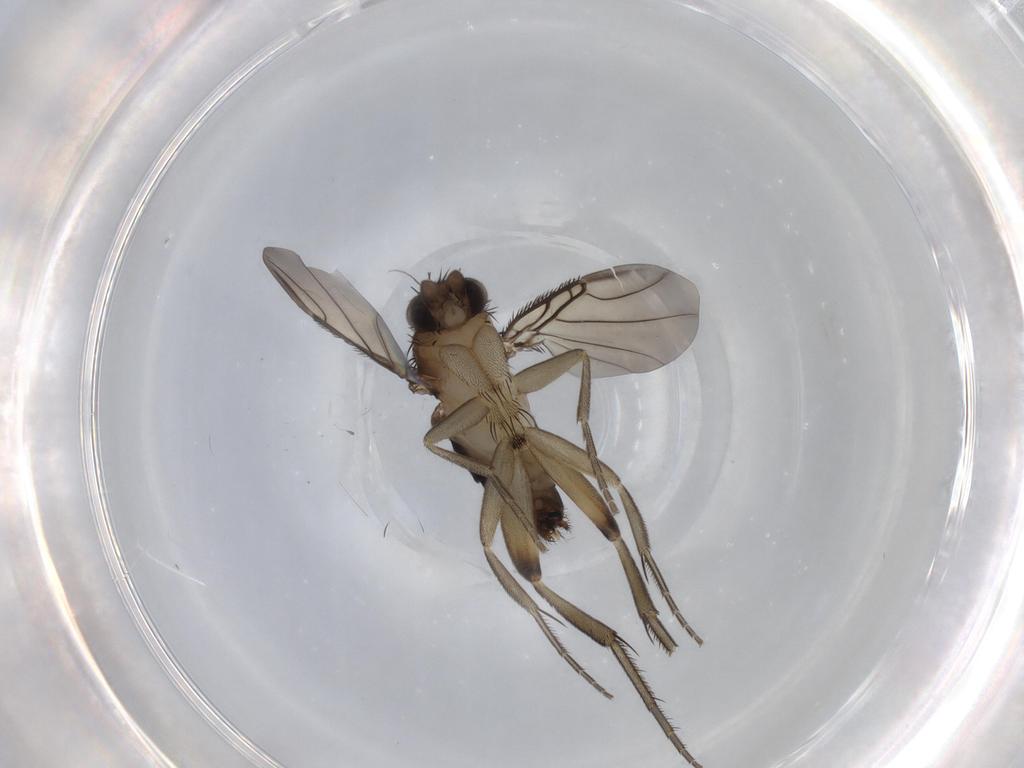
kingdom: Animalia
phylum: Arthropoda
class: Insecta
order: Diptera
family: Phoridae
